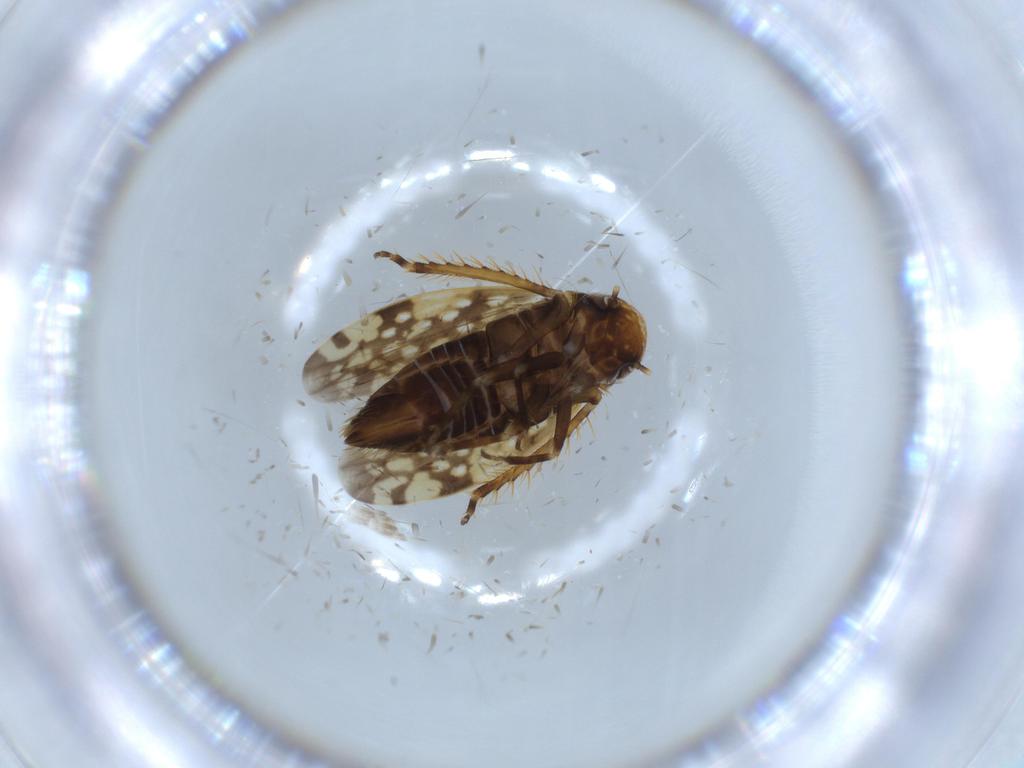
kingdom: Animalia
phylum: Arthropoda
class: Insecta
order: Hemiptera
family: Cicadellidae
